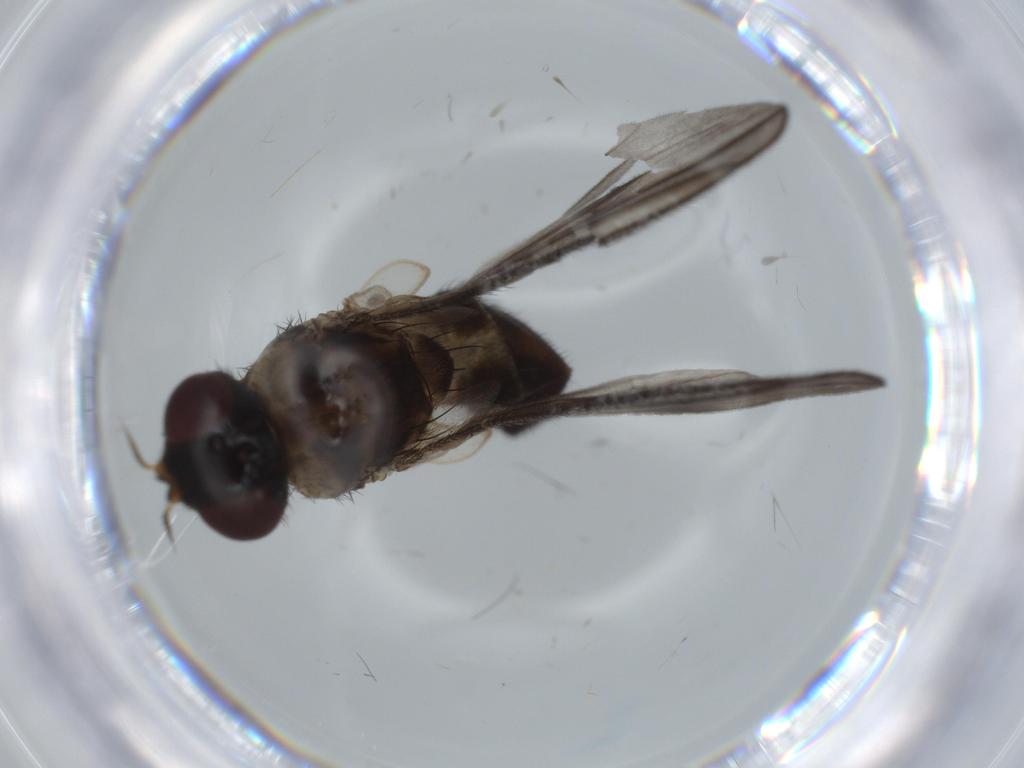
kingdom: Animalia
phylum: Arthropoda
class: Insecta
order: Diptera
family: Calliphoridae
